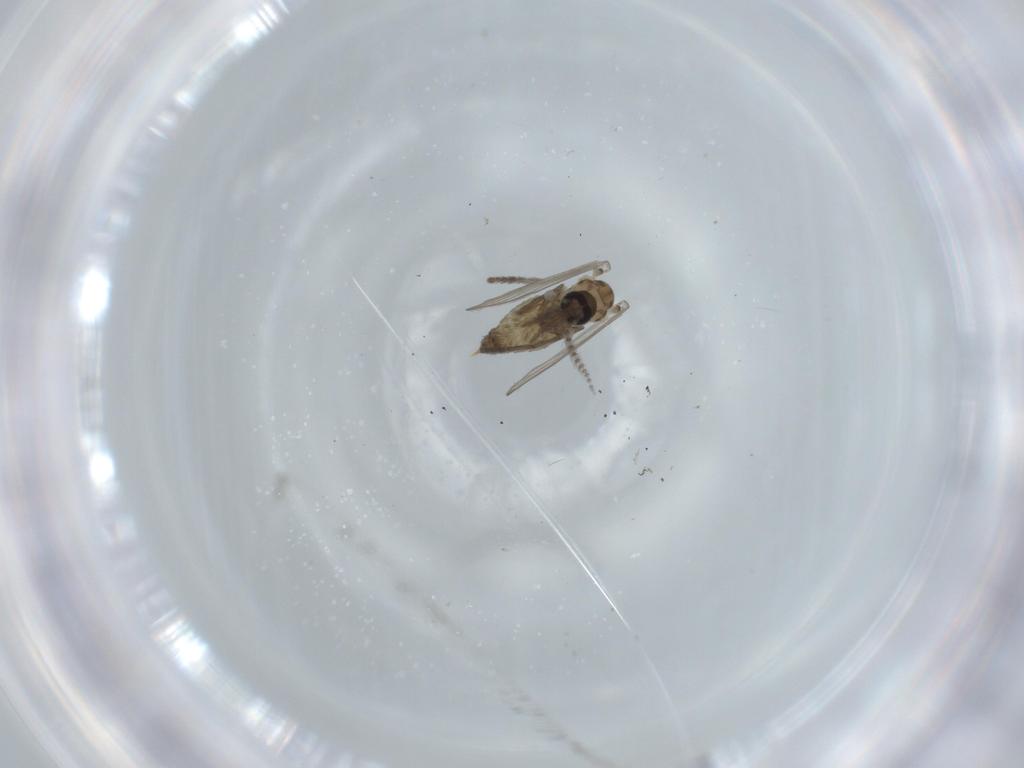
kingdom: Animalia
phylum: Arthropoda
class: Insecta
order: Diptera
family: Psychodidae
